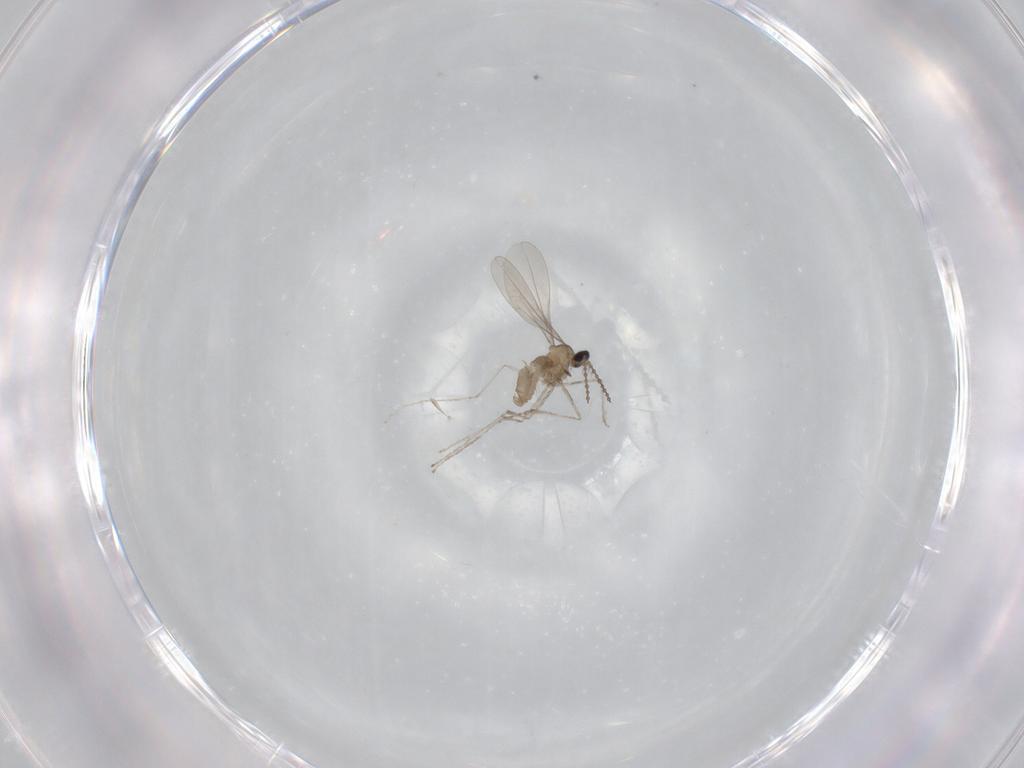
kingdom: Animalia
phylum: Arthropoda
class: Insecta
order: Diptera
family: Cecidomyiidae
